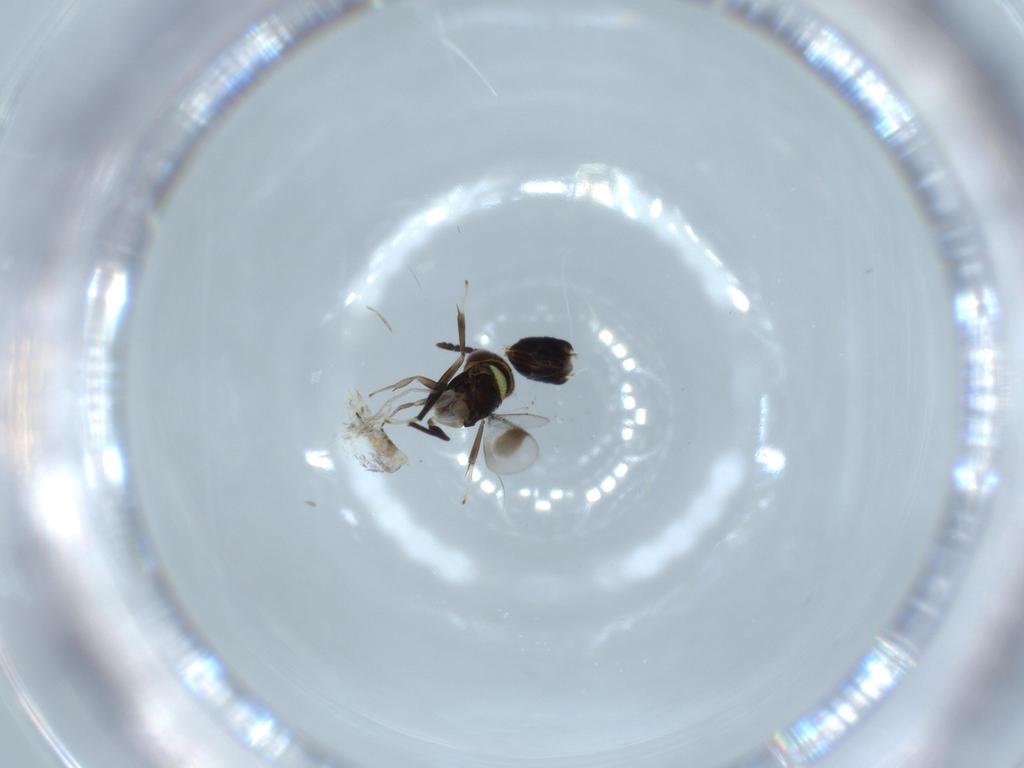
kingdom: Animalia
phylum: Arthropoda
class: Insecta
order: Hymenoptera
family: Aphelinidae
